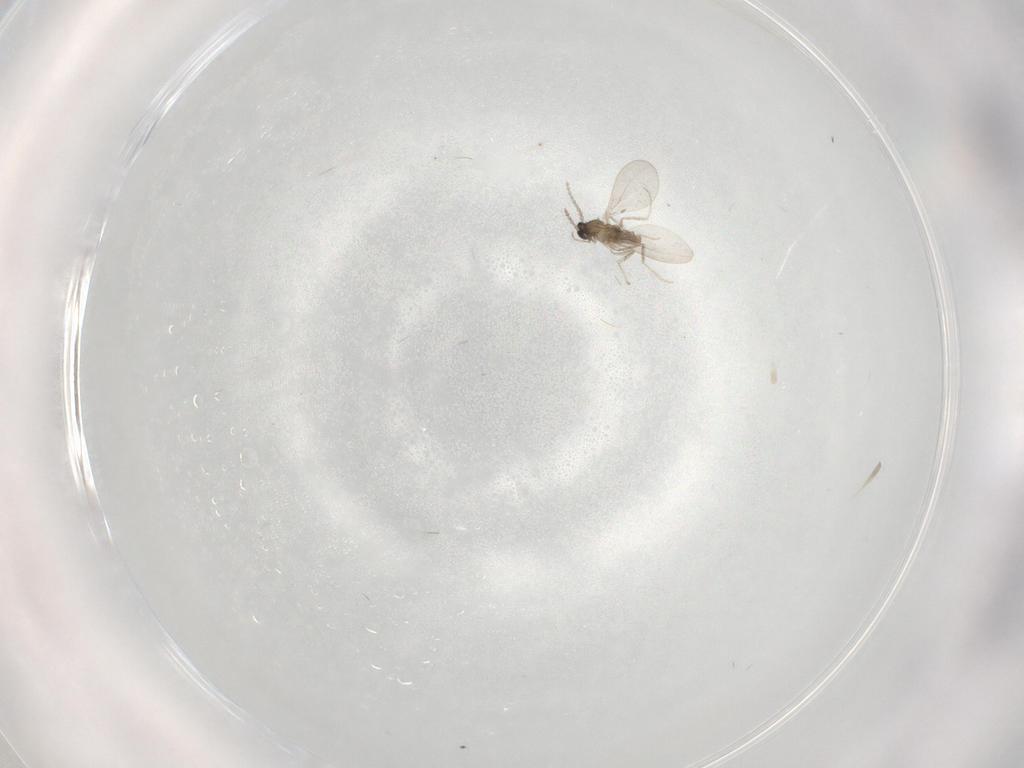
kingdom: Animalia
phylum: Arthropoda
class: Insecta
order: Diptera
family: Cecidomyiidae
